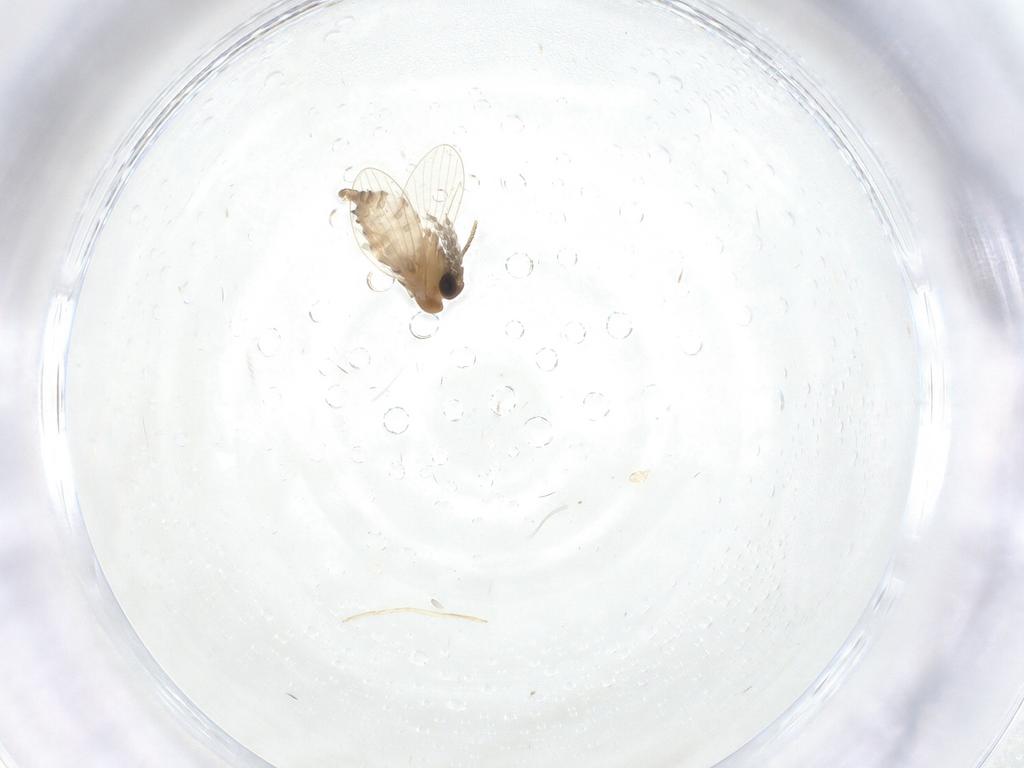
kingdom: Animalia
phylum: Arthropoda
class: Insecta
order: Diptera
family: Psychodidae
